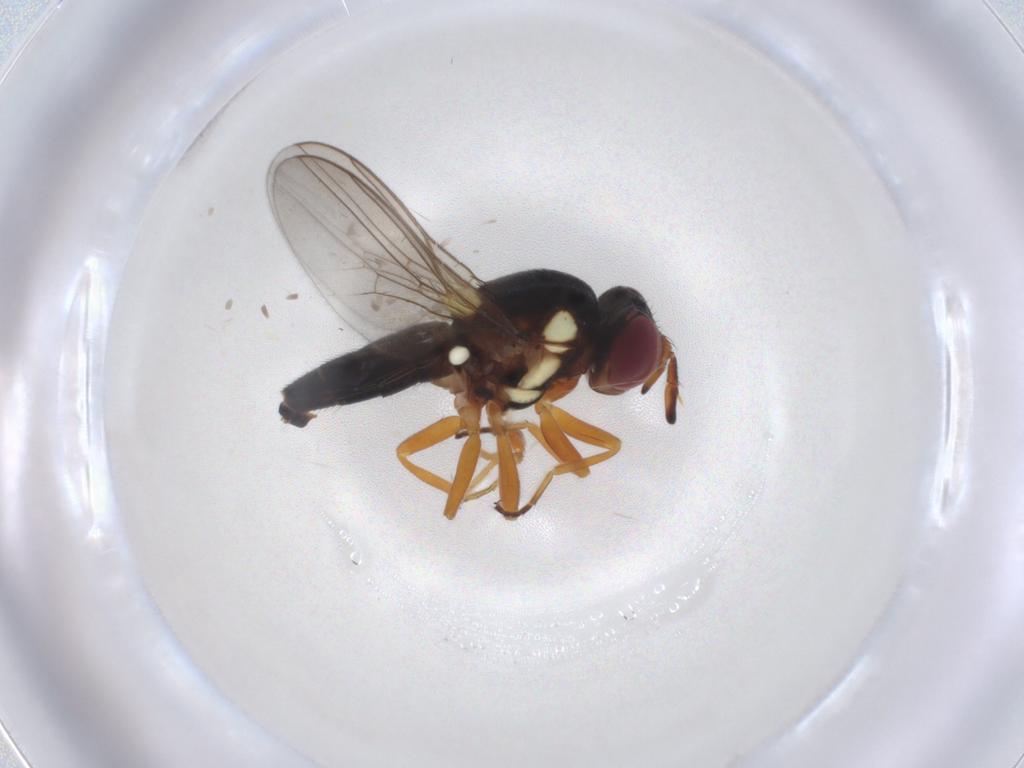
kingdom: Animalia
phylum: Arthropoda
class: Insecta
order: Diptera
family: Chloropidae
